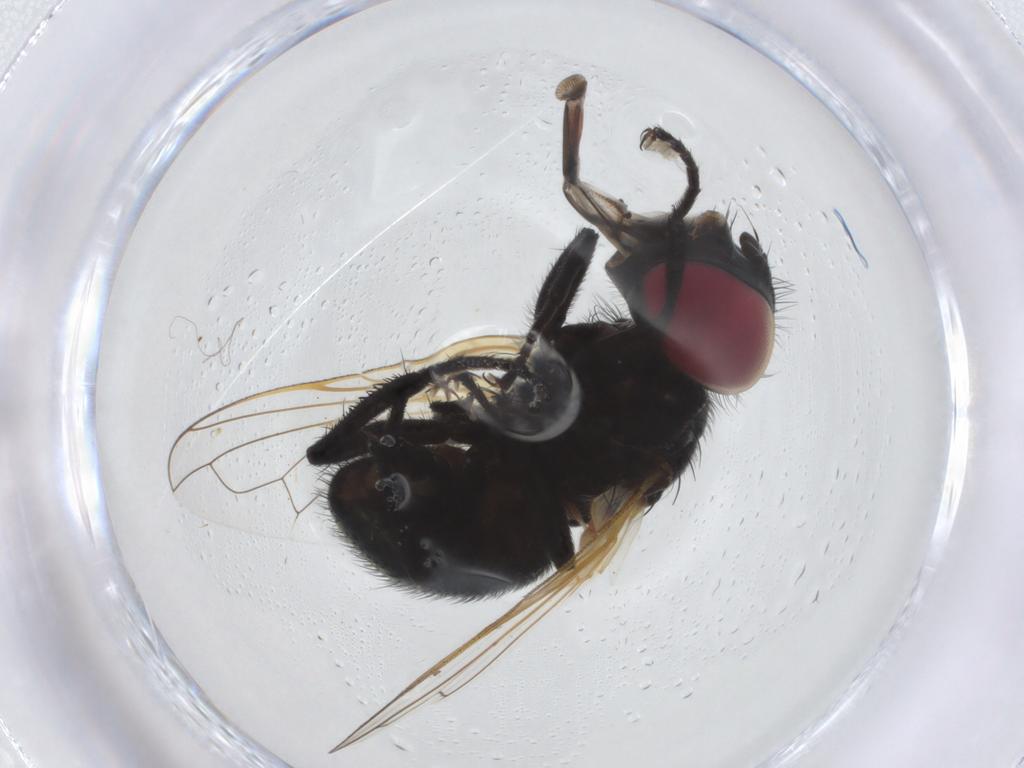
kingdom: Animalia
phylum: Arthropoda
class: Insecta
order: Diptera
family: Tachinidae
